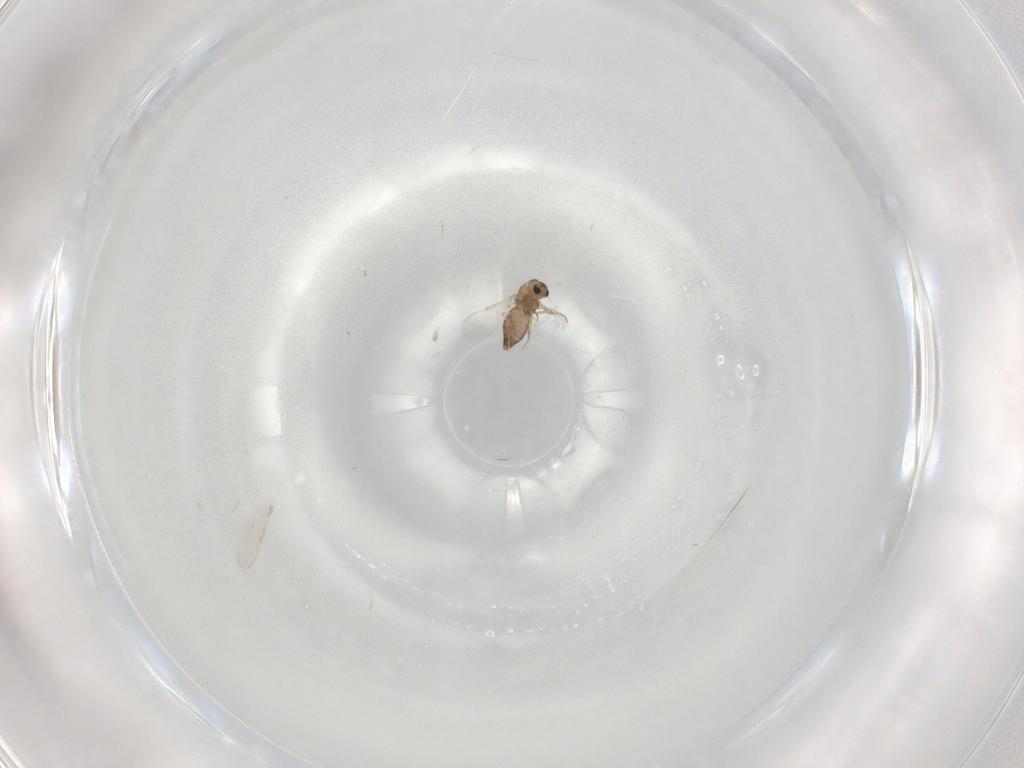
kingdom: Animalia
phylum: Arthropoda
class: Insecta
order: Diptera
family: Chironomidae
